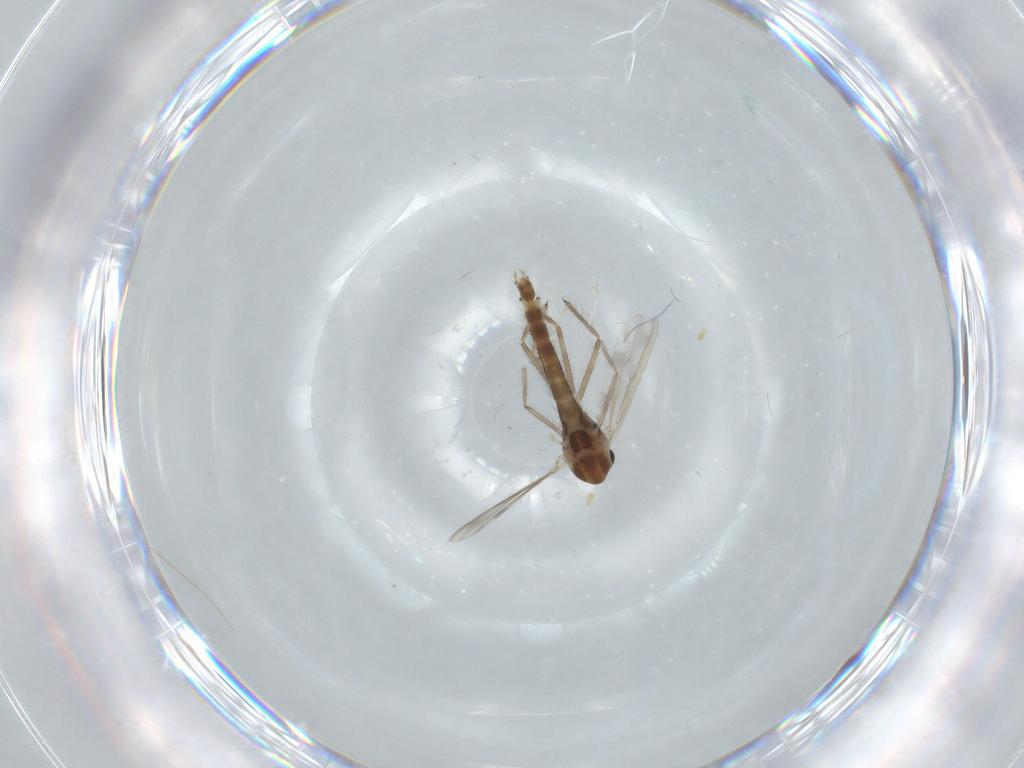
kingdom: Animalia
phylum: Arthropoda
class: Insecta
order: Diptera
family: Chironomidae
